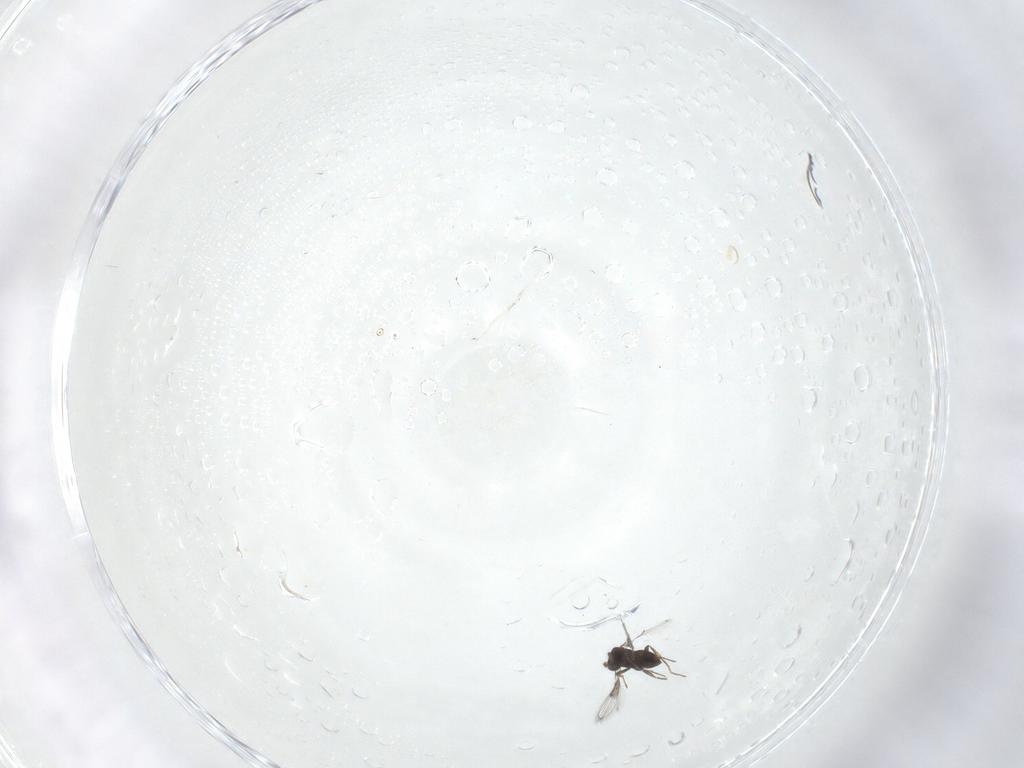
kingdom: Animalia
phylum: Arthropoda
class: Insecta
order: Hymenoptera
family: Trichogrammatidae
